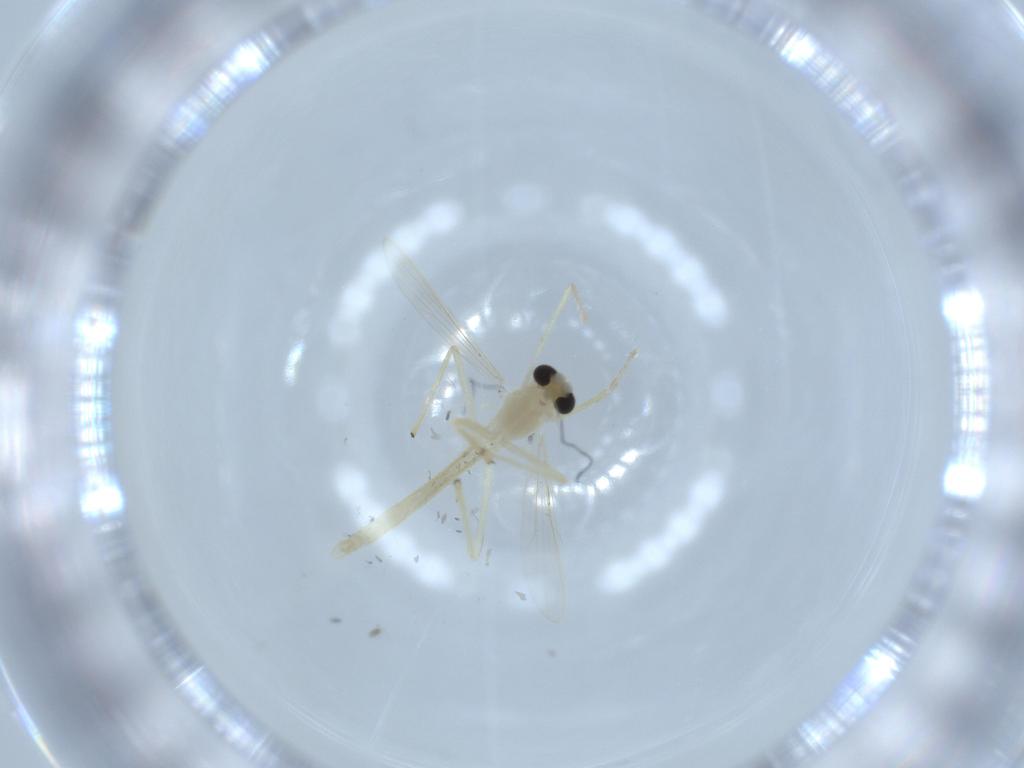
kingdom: Animalia
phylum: Arthropoda
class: Insecta
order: Diptera
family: Chironomidae
